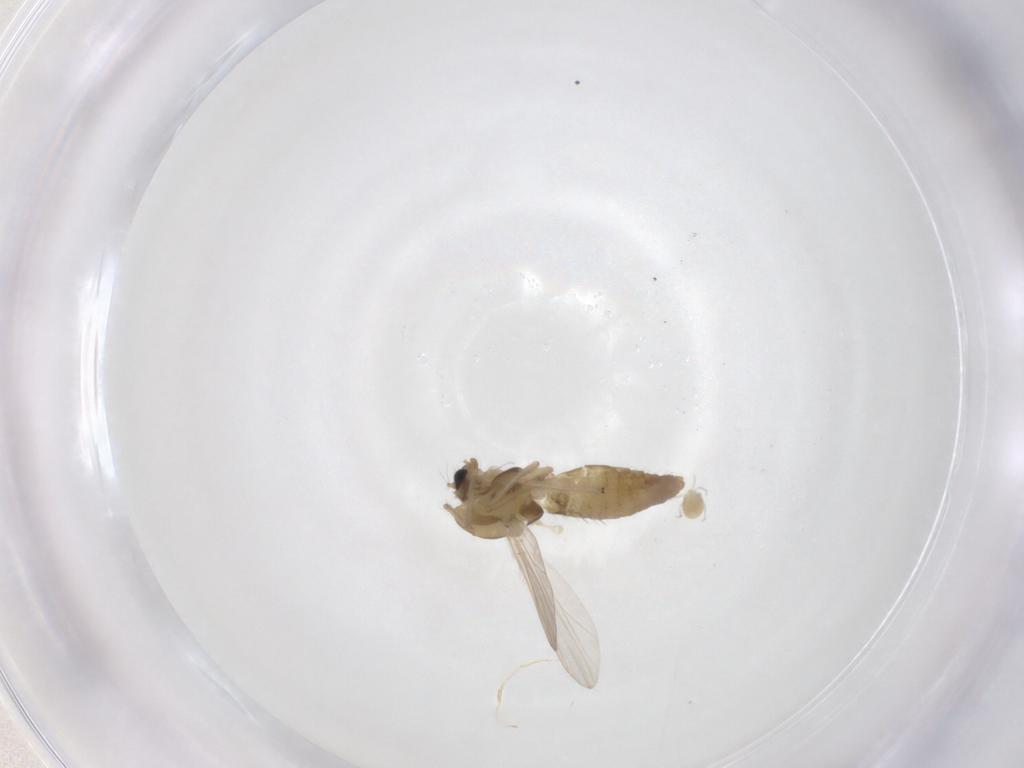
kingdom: Animalia
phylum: Arthropoda
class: Insecta
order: Diptera
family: Chironomidae
